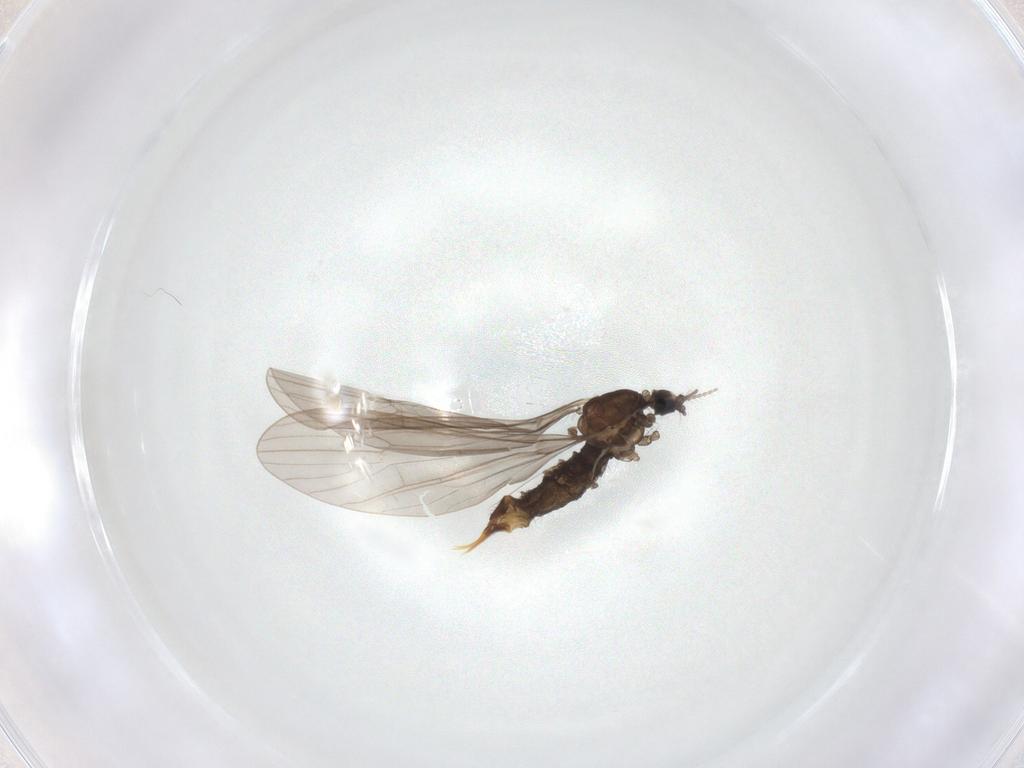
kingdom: Animalia
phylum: Arthropoda
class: Insecta
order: Diptera
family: Limoniidae
